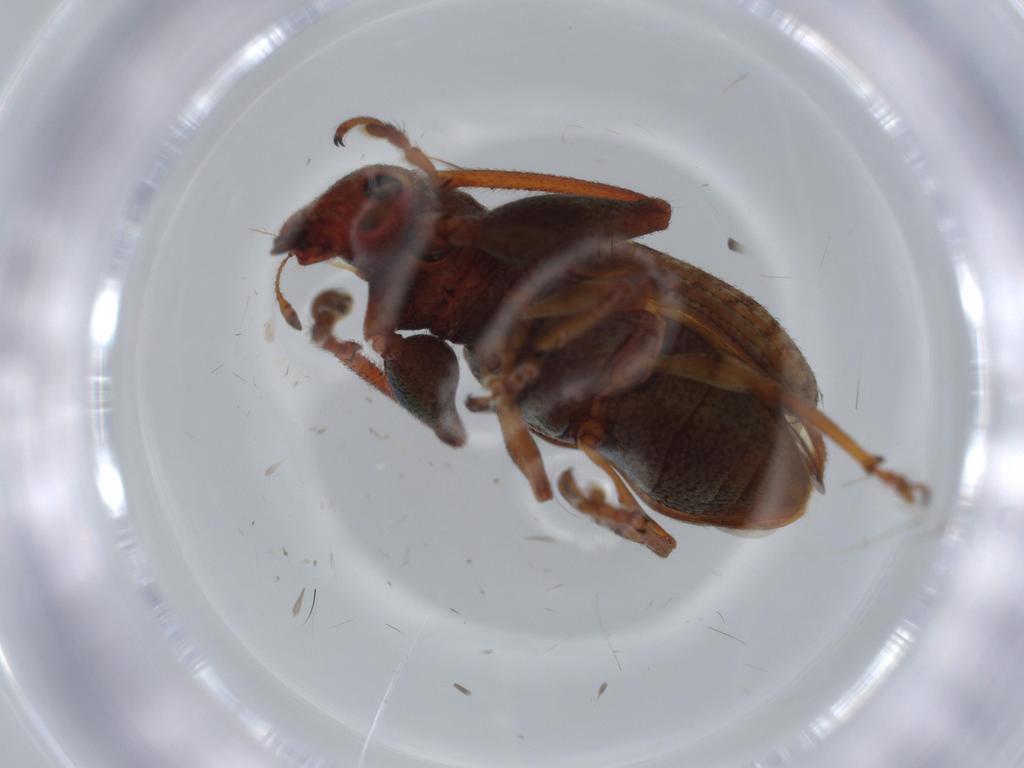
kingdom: Animalia
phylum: Arthropoda
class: Insecta
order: Coleoptera
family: Curculionidae
